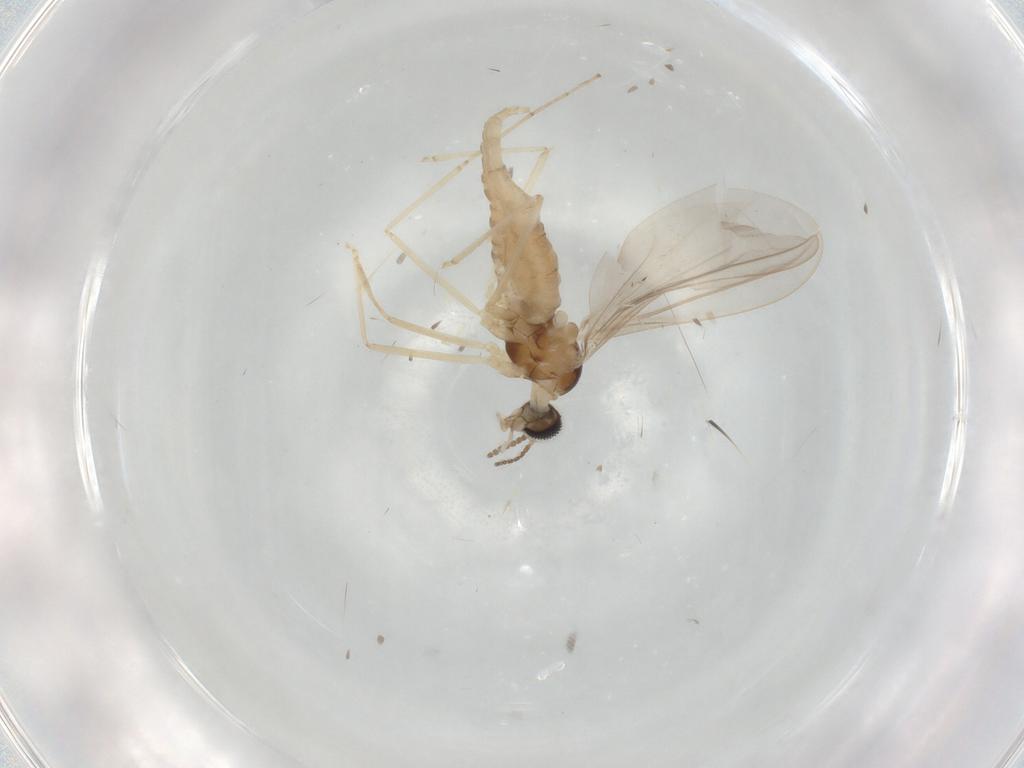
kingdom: Animalia
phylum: Arthropoda
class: Insecta
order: Diptera
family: Cecidomyiidae
